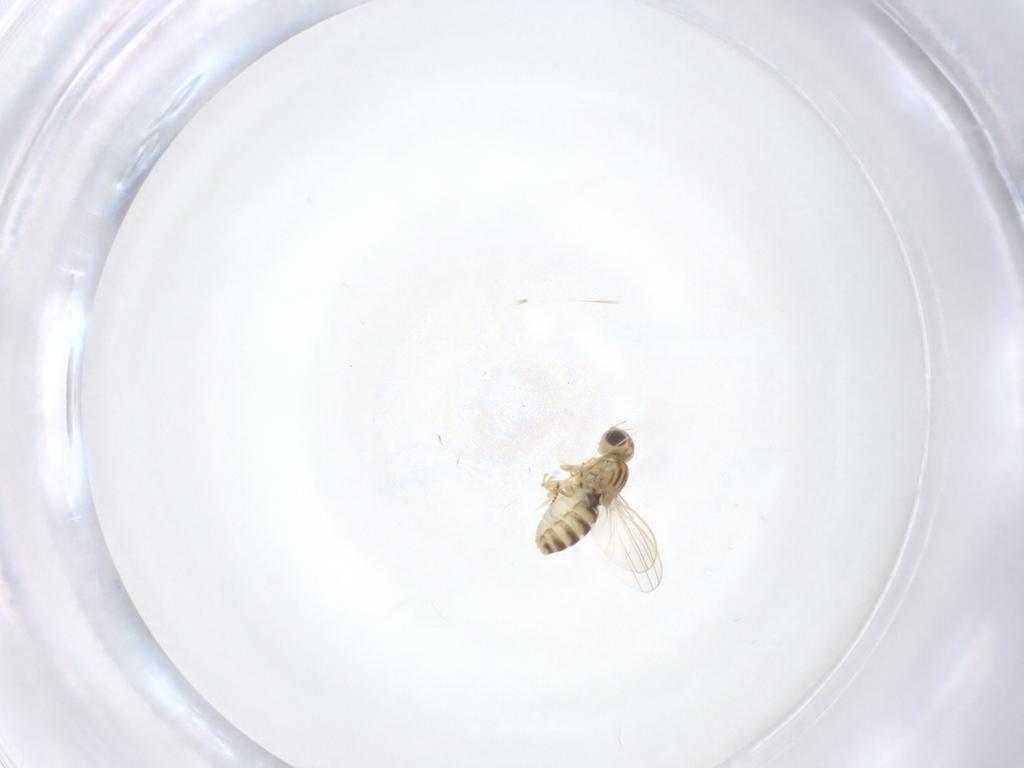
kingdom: Animalia
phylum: Arthropoda
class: Insecta
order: Diptera
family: Chyromyidae
